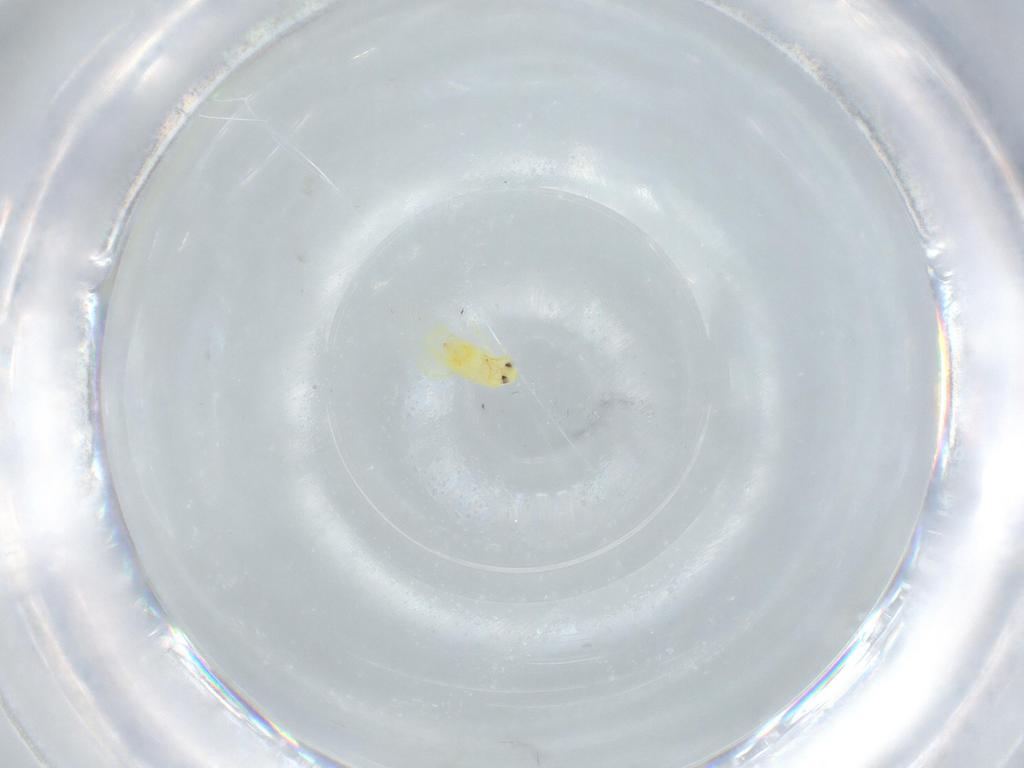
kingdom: Animalia
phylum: Arthropoda
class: Insecta
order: Hemiptera
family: Aleyrodidae
